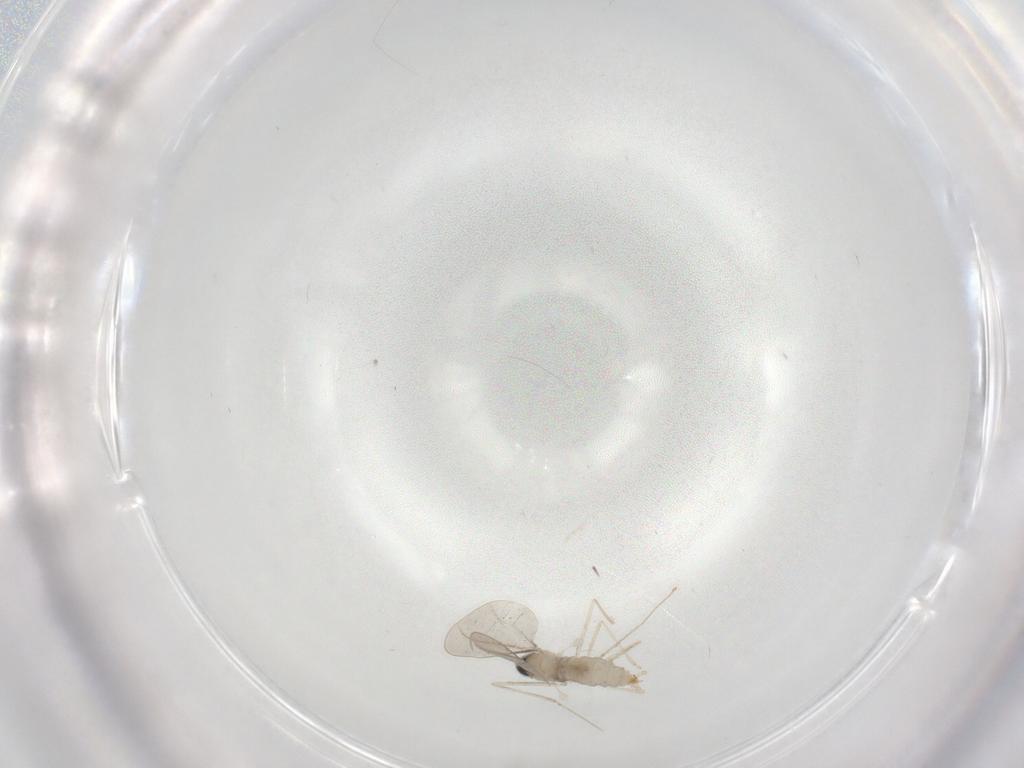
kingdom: Animalia
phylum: Arthropoda
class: Insecta
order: Diptera
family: Cecidomyiidae
